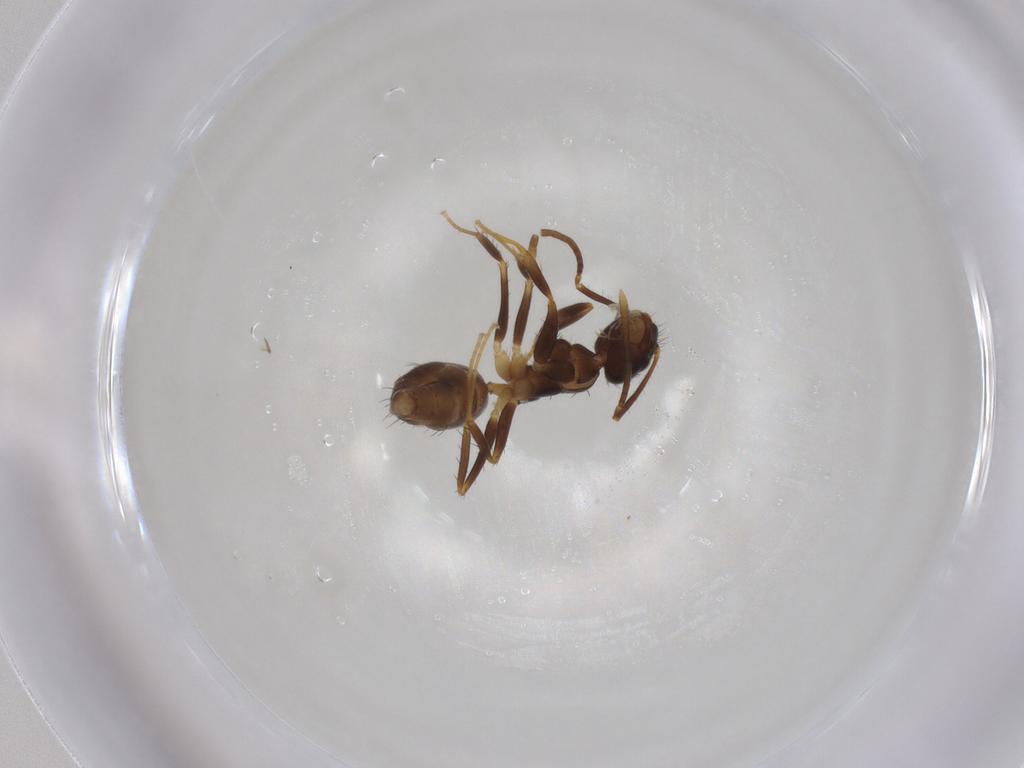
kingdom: Animalia
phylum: Arthropoda
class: Insecta
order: Hymenoptera
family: Formicidae
